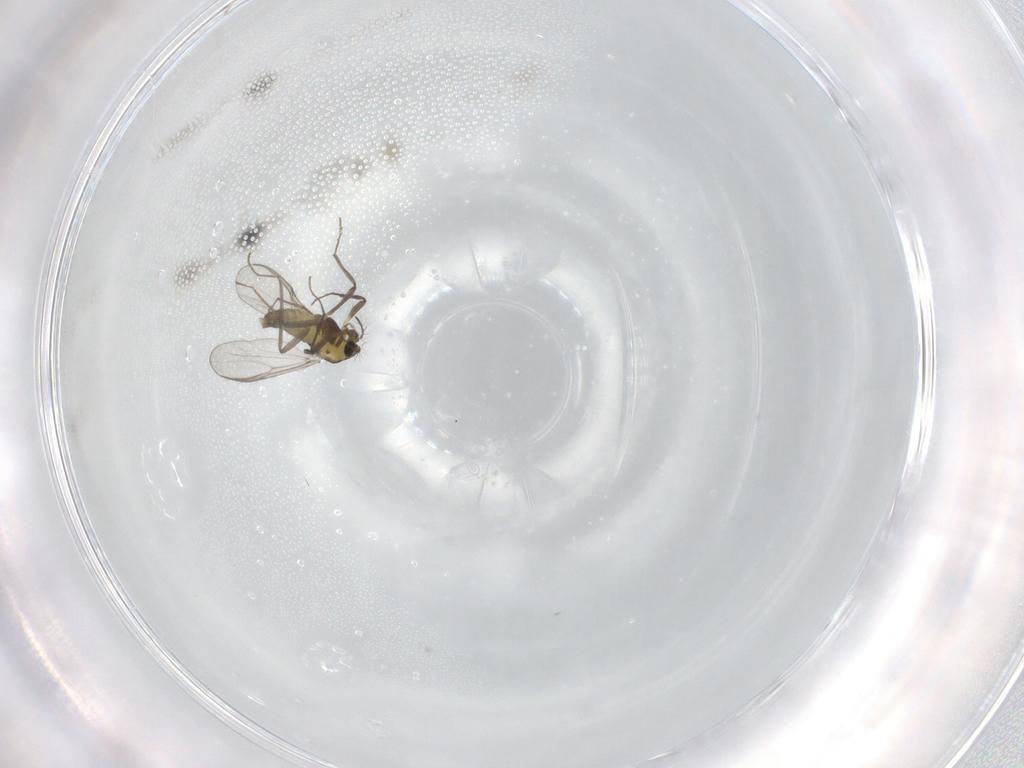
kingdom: Animalia
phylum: Arthropoda
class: Insecta
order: Diptera
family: Chironomidae
